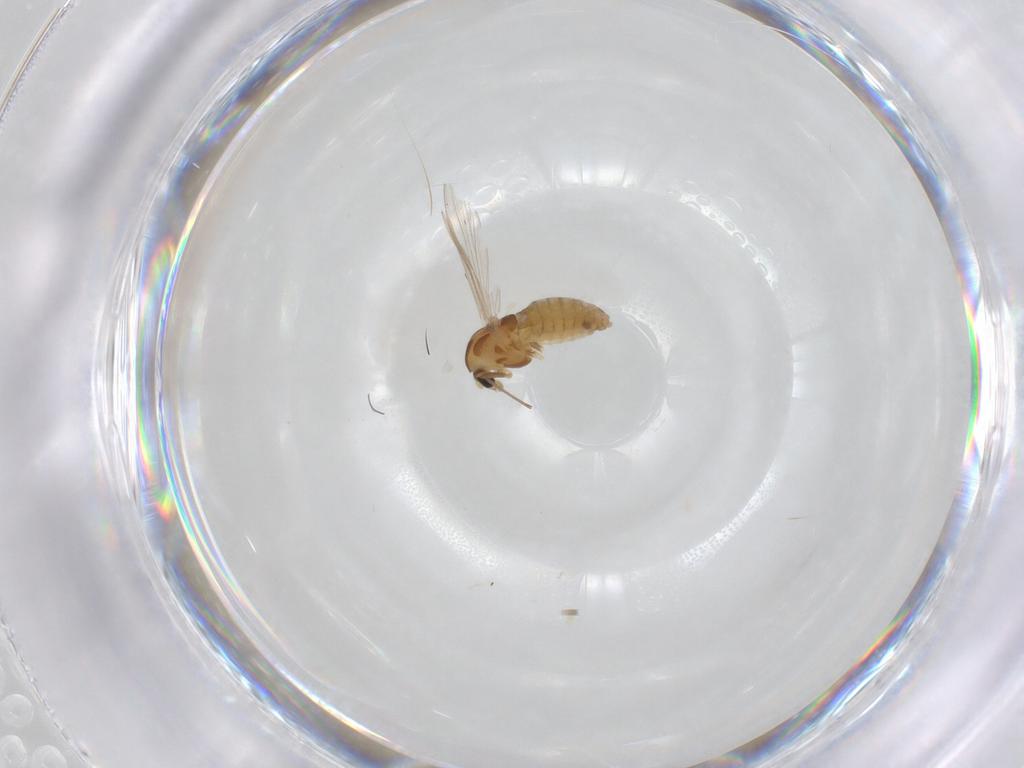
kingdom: Animalia
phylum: Arthropoda
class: Insecta
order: Diptera
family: Chironomidae
